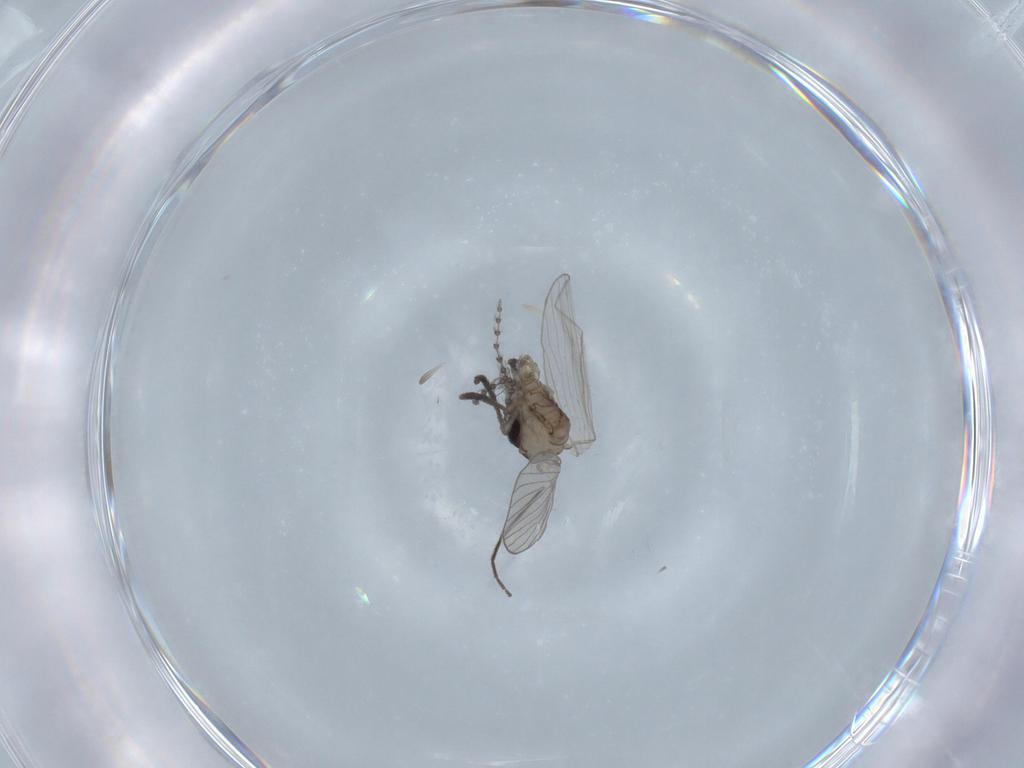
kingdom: Animalia
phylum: Arthropoda
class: Insecta
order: Diptera
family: Psychodidae
